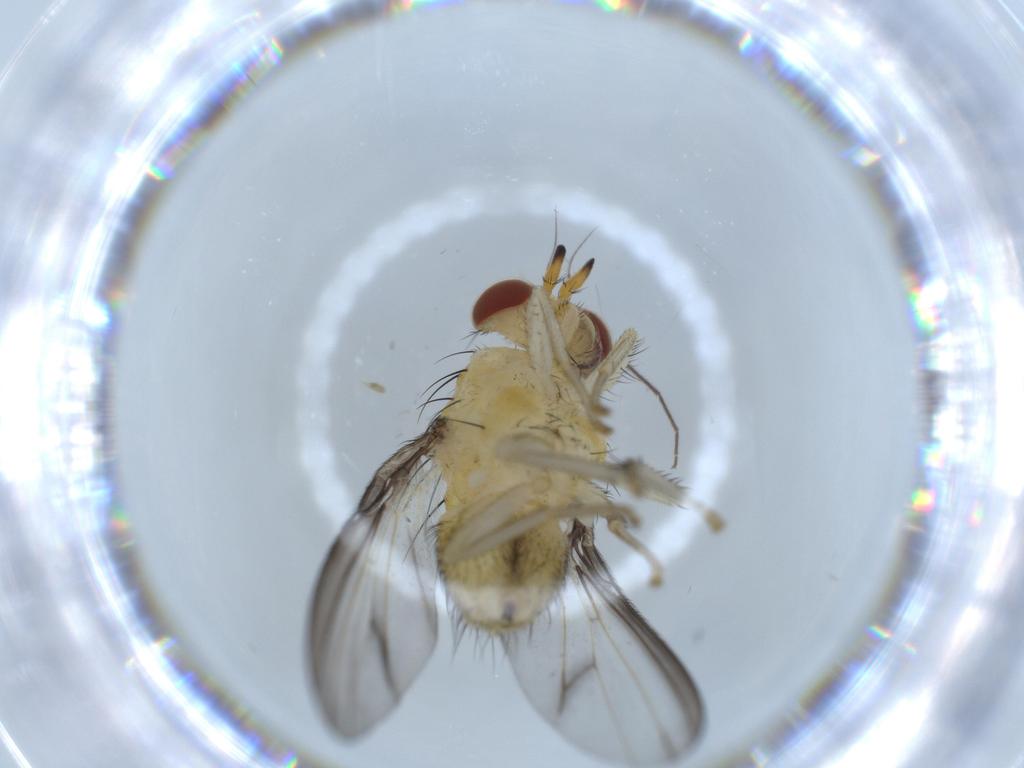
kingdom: Animalia
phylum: Arthropoda
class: Insecta
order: Diptera
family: Lauxaniidae
